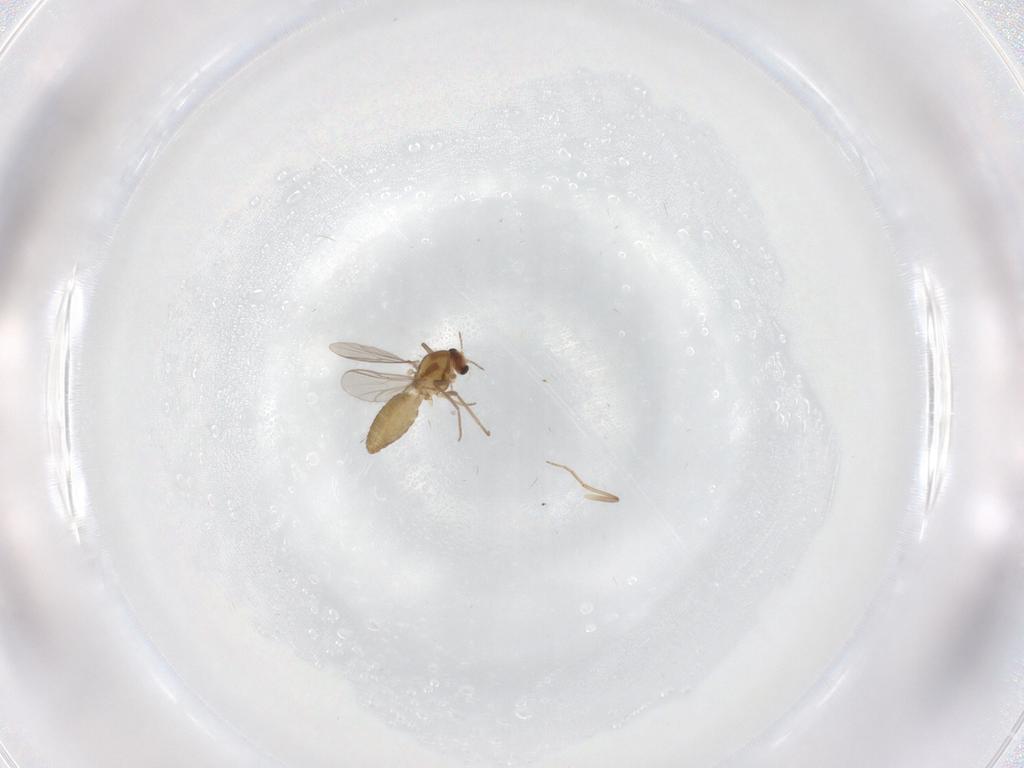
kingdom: Animalia
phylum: Arthropoda
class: Insecta
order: Diptera
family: Chironomidae
